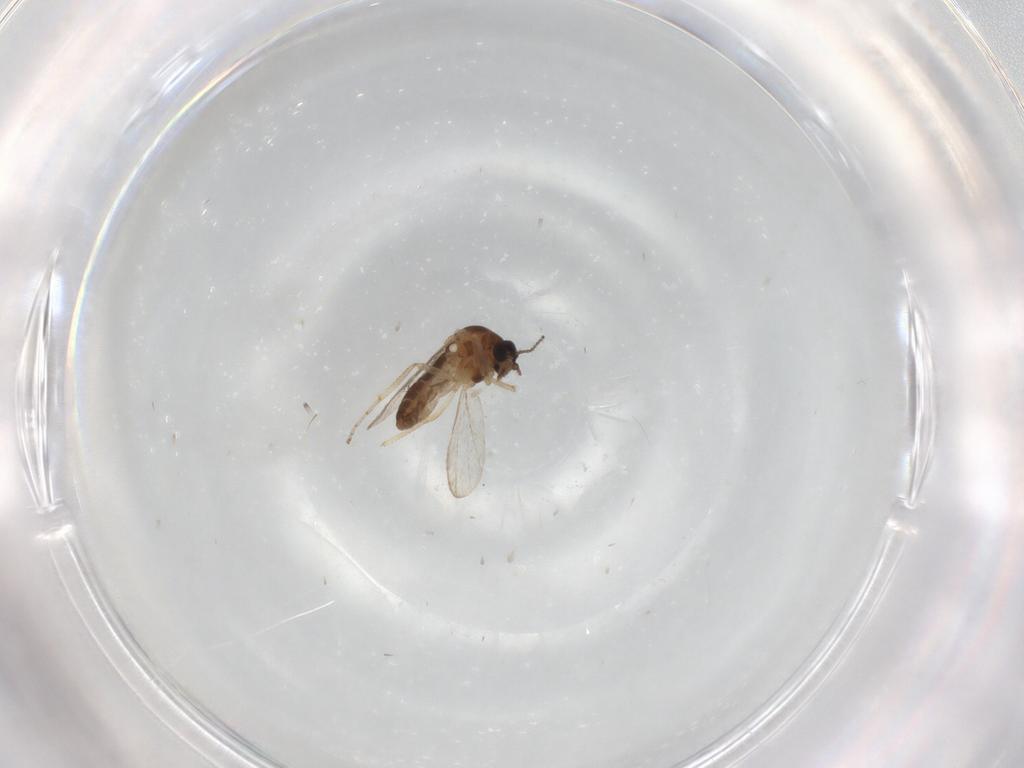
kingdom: Animalia
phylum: Arthropoda
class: Insecta
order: Diptera
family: Ceratopogonidae
